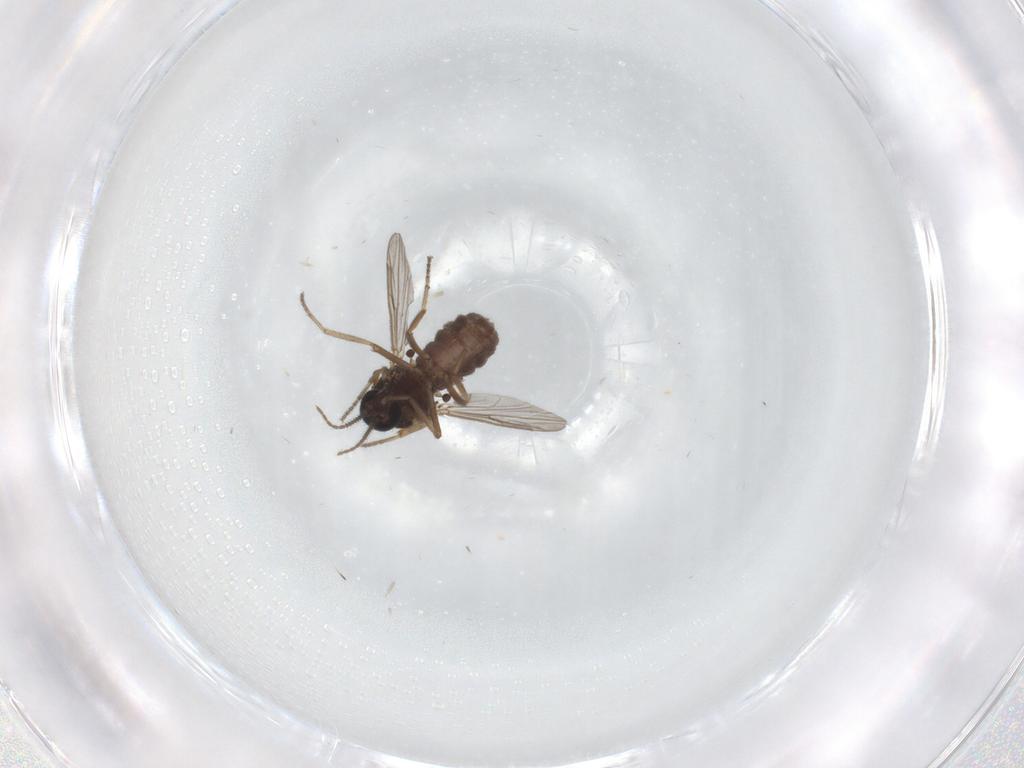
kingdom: Animalia
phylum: Arthropoda
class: Insecta
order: Diptera
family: Ceratopogonidae
